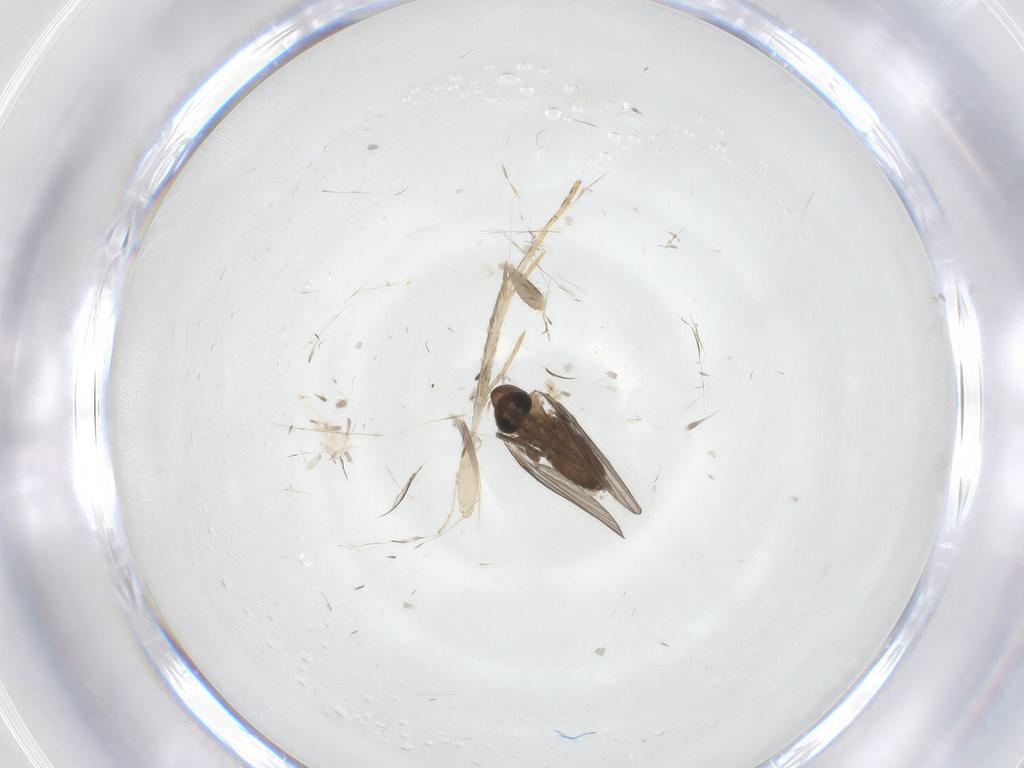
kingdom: Animalia
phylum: Arthropoda
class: Insecta
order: Diptera
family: Psychodidae
